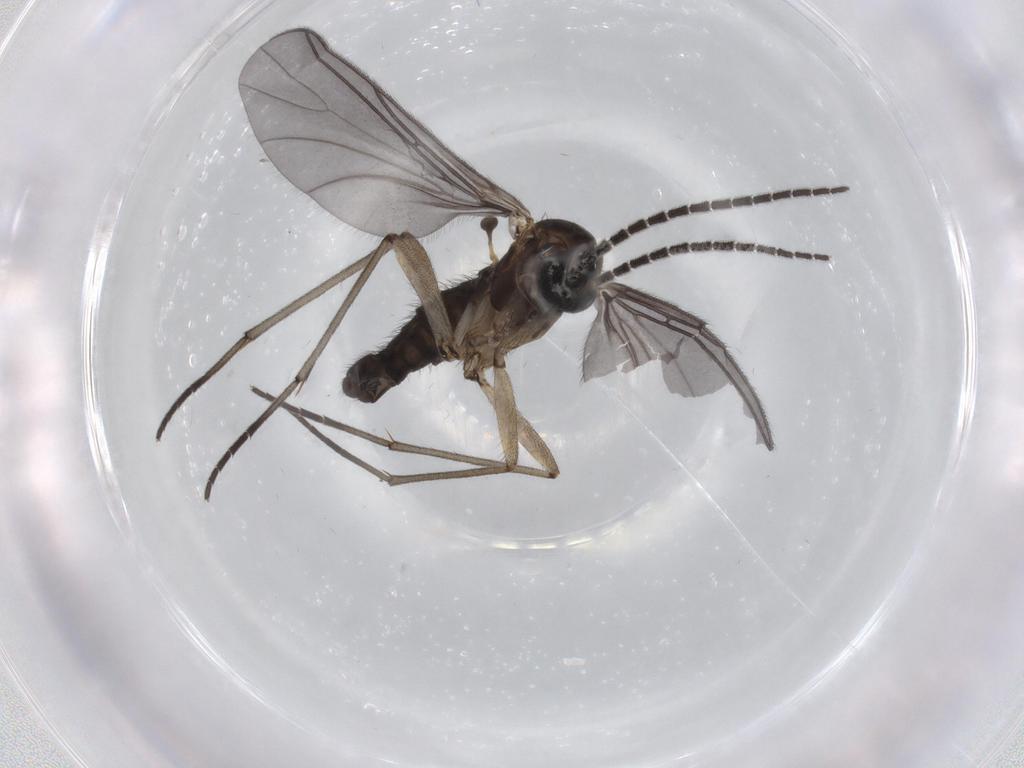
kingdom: Animalia
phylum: Arthropoda
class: Insecta
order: Diptera
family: Sciaridae
